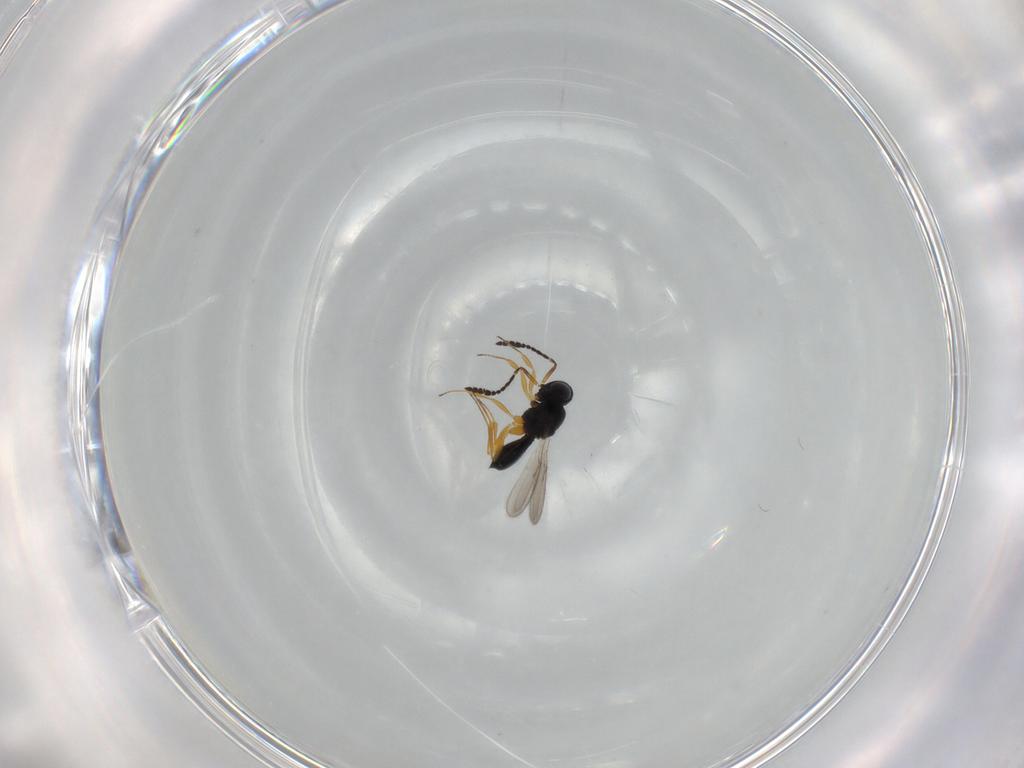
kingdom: Animalia
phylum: Arthropoda
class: Insecta
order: Hymenoptera
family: Scelionidae
